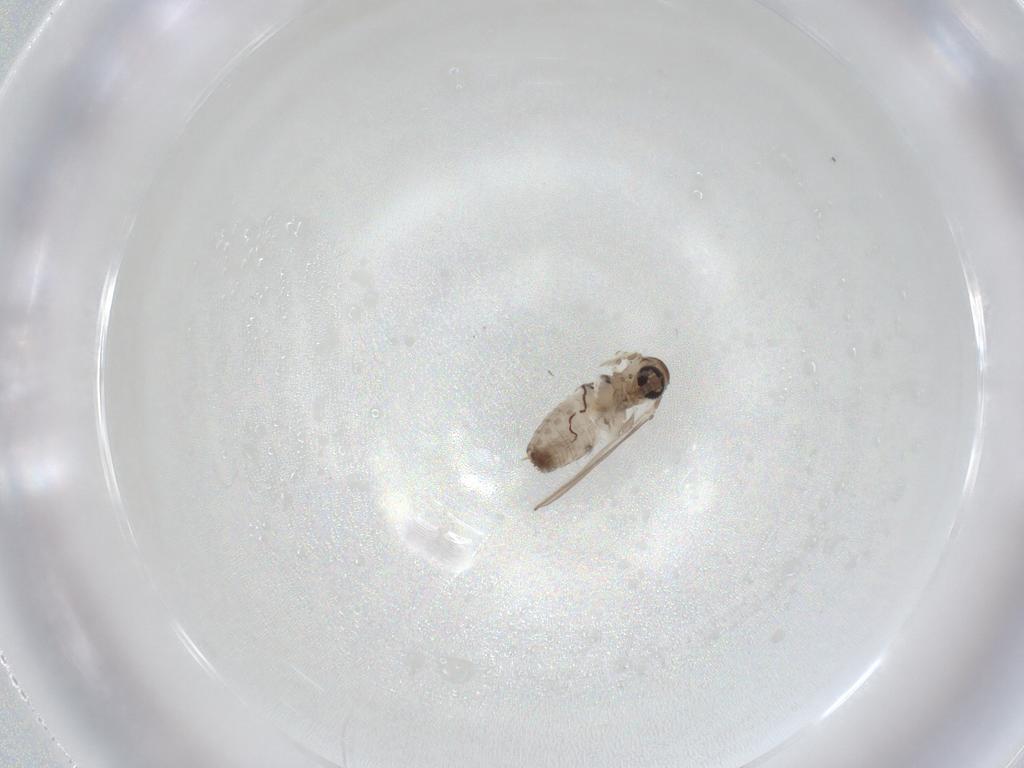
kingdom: Animalia
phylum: Arthropoda
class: Insecta
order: Diptera
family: Psychodidae
